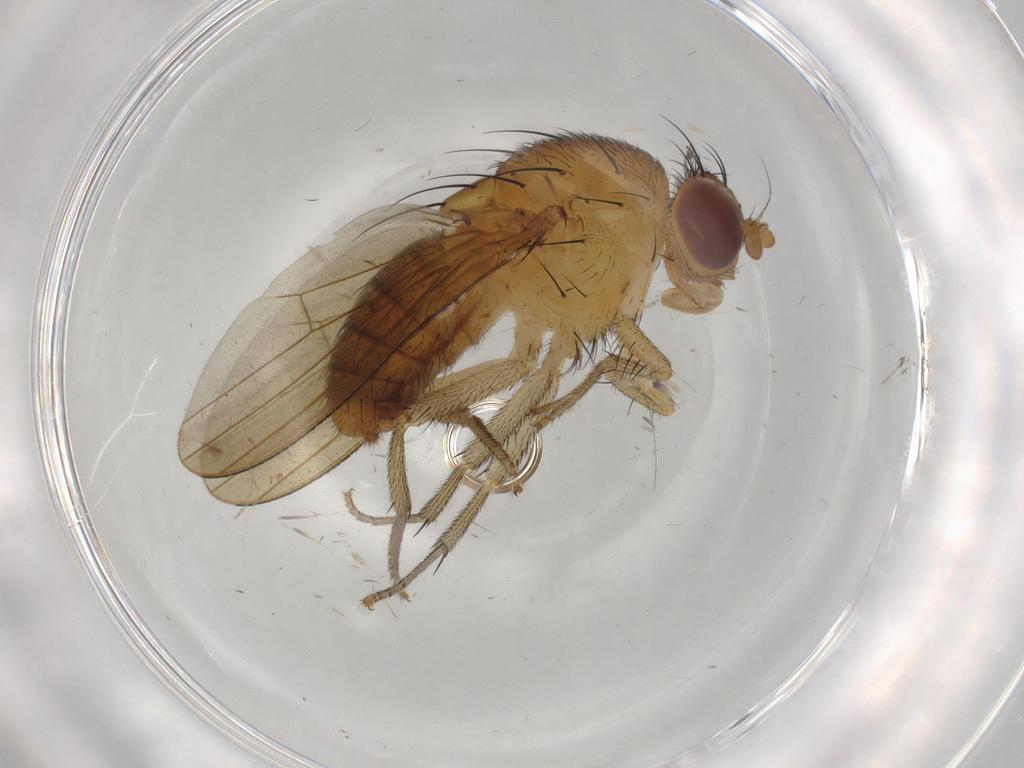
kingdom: Animalia
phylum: Arthropoda
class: Insecta
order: Diptera
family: Cecidomyiidae
